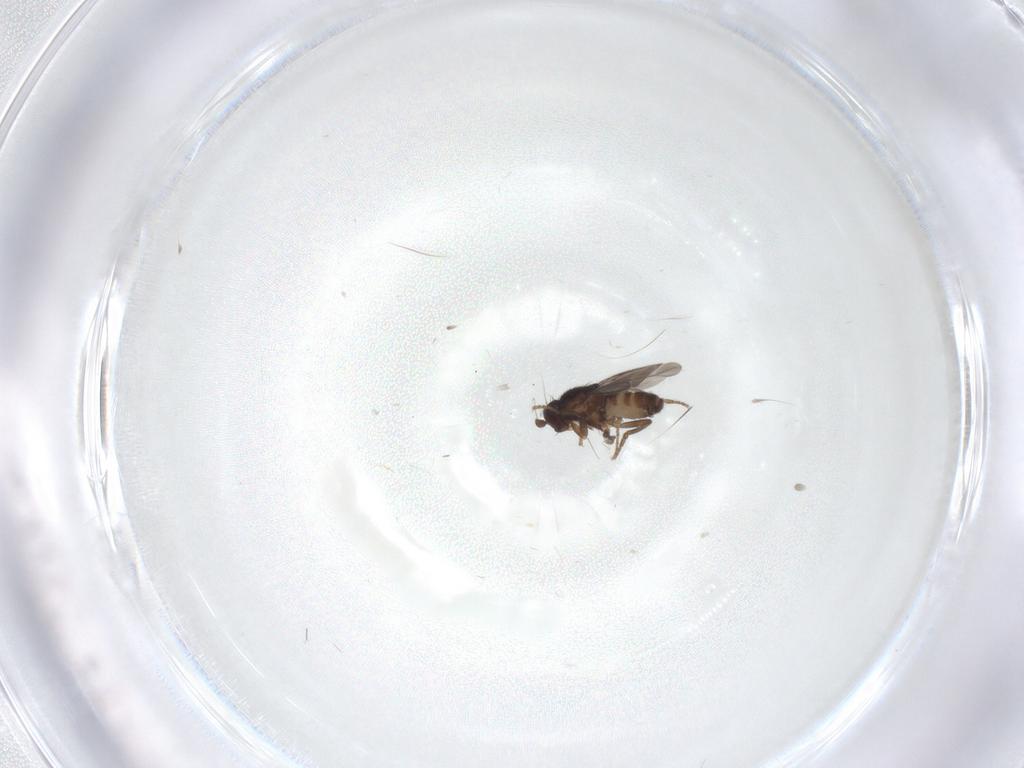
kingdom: Animalia
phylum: Arthropoda
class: Insecta
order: Diptera
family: Sphaeroceridae
